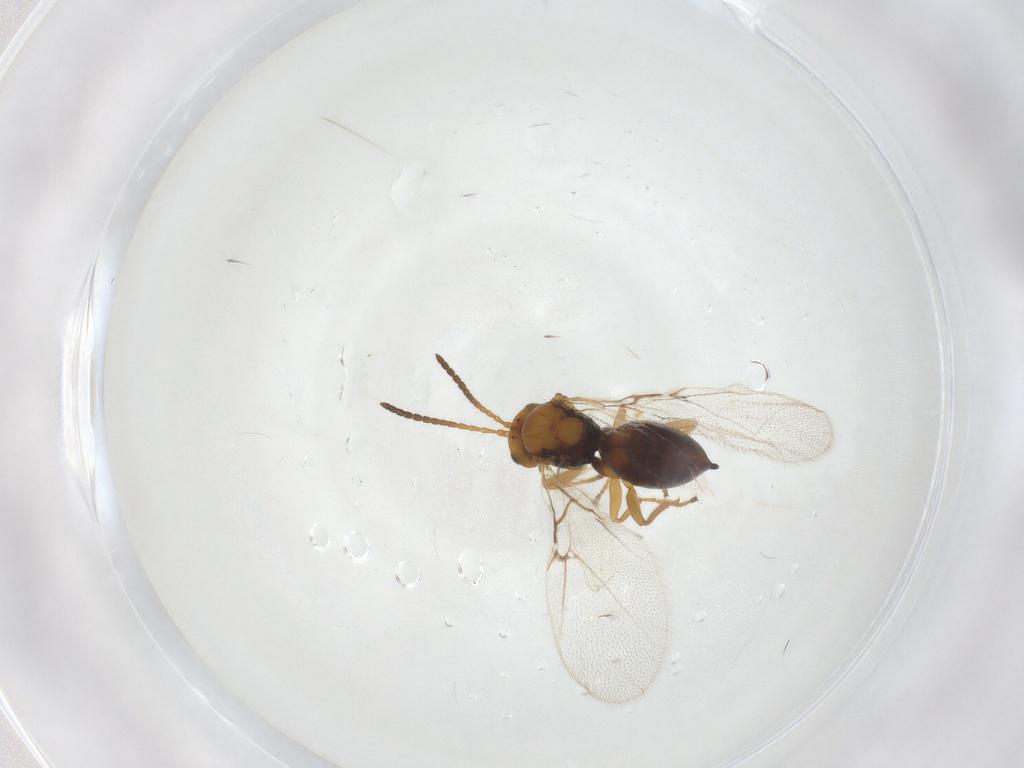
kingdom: Animalia
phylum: Arthropoda
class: Insecta
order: Hymenoptera
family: Cynipidae
